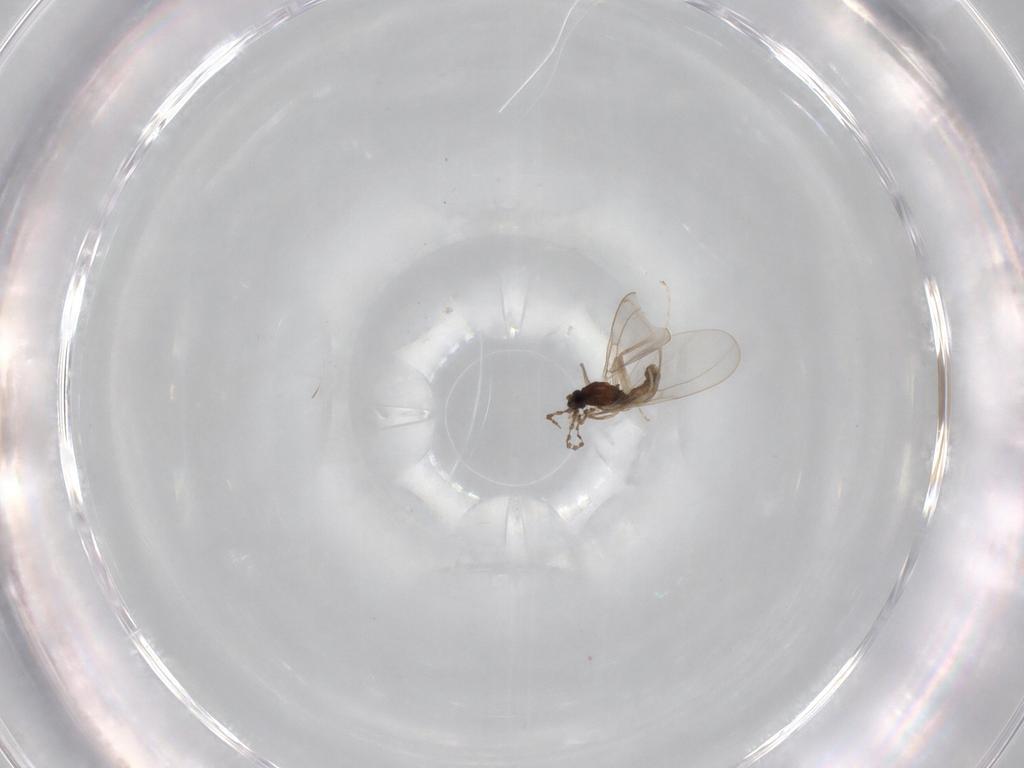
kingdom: Animalia
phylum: Arthropoda
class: Insecta
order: Diptera
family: Cecidomyiidae
